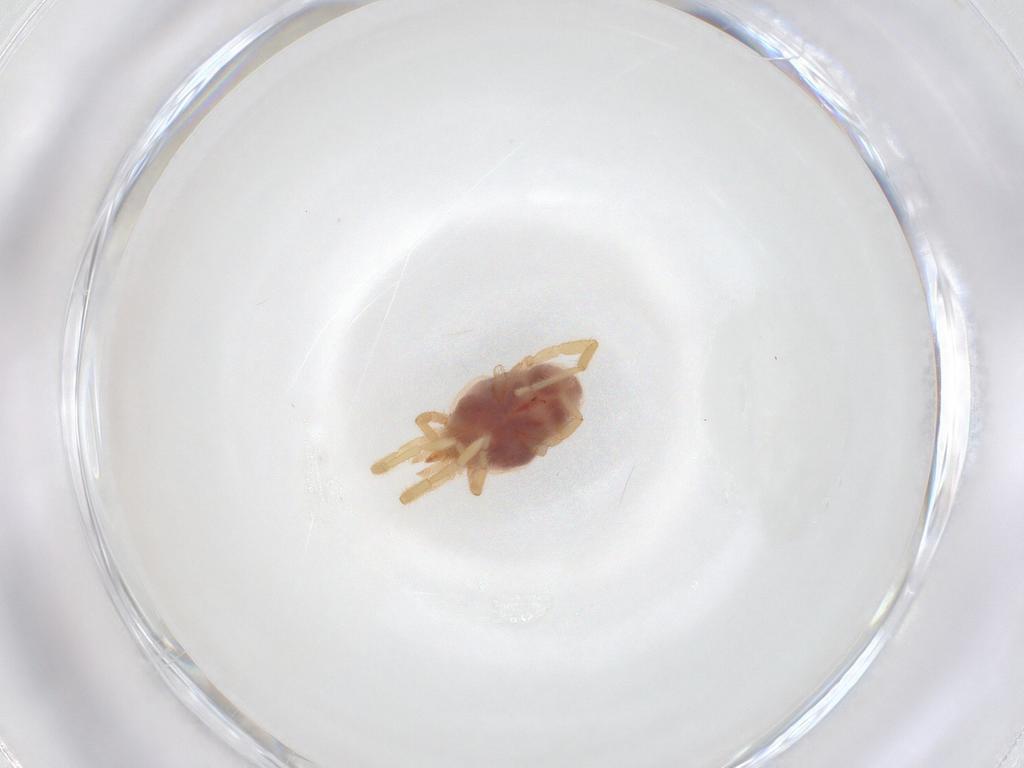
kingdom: Animalia
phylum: Arthropoda
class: Arachnida
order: Trombidiformes
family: Erythraeidae
